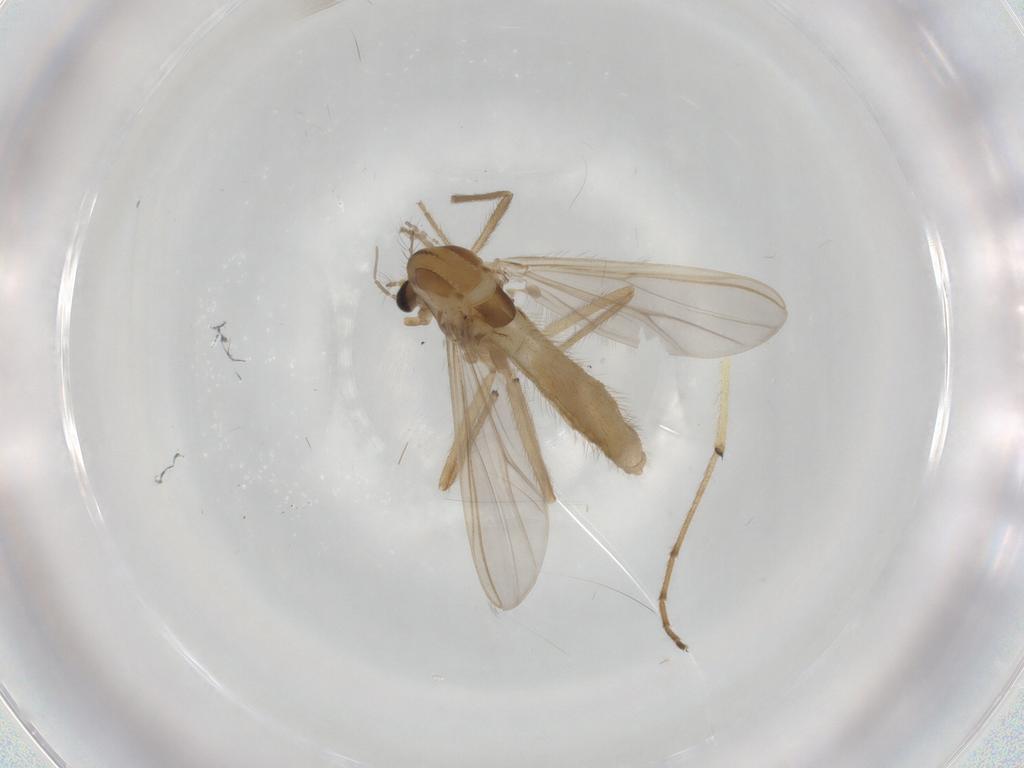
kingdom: Animalia
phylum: Arthropoda
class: Insecta
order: Diptera
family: Chironomidae
